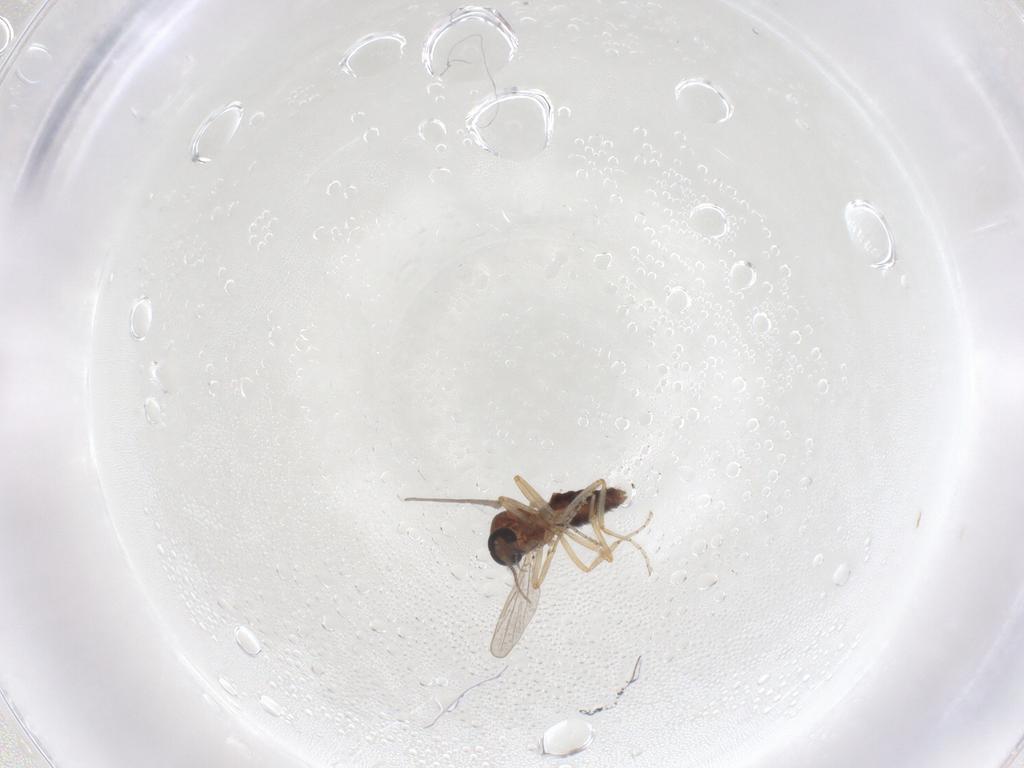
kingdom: Animalia
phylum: Arthropoda
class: Insecta
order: Diptera
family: Ceratopogonidae
